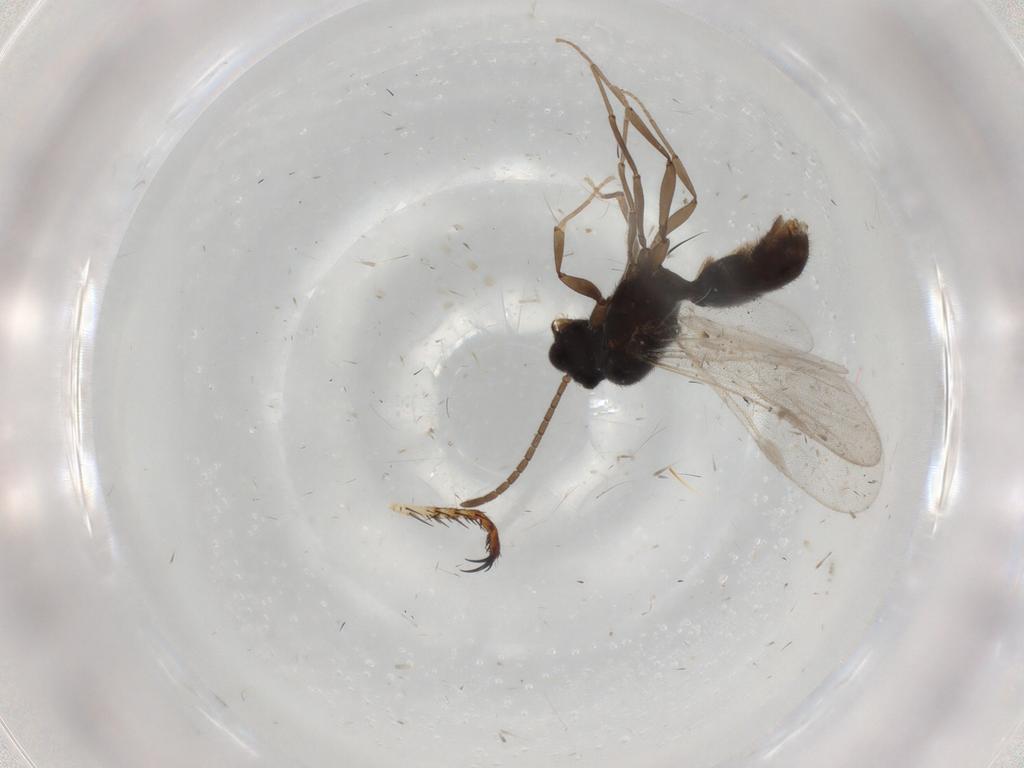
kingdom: Animalia
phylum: Arthropoda
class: Insecta
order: Hymenoptera
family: Formicidae
